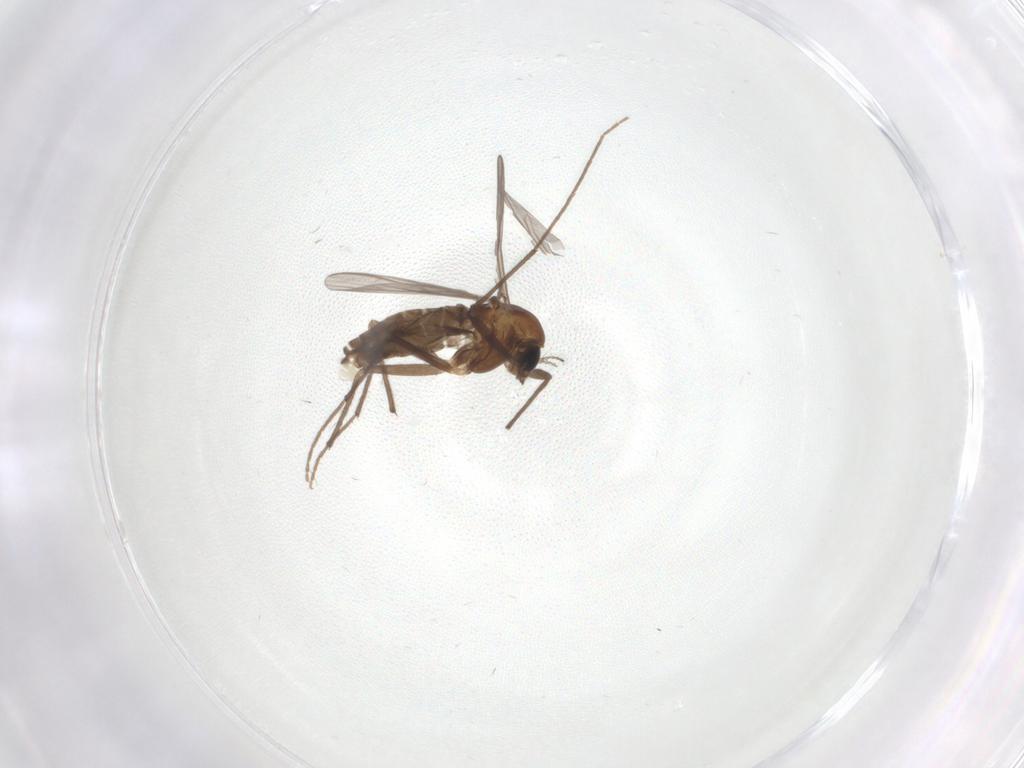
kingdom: Animalia
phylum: Arthropoda
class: Insecta
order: Diptera
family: Chironomidae
